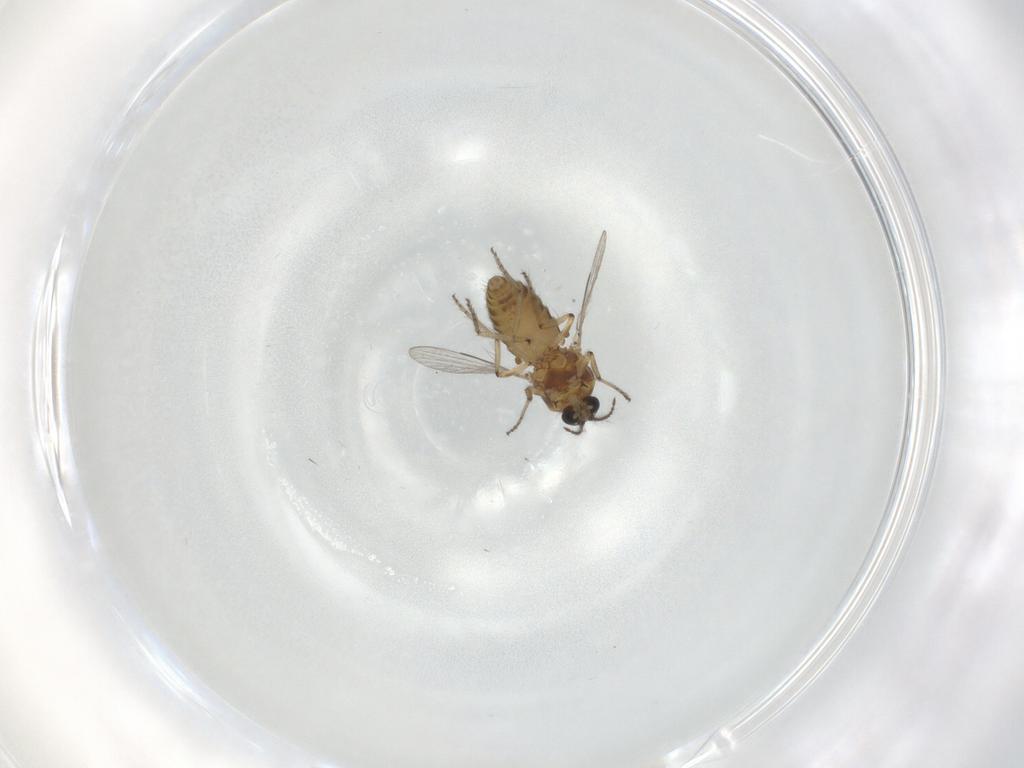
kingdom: Animalia
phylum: Arthropoda
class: Insecta
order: Diptera
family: Ceratopogonidae
